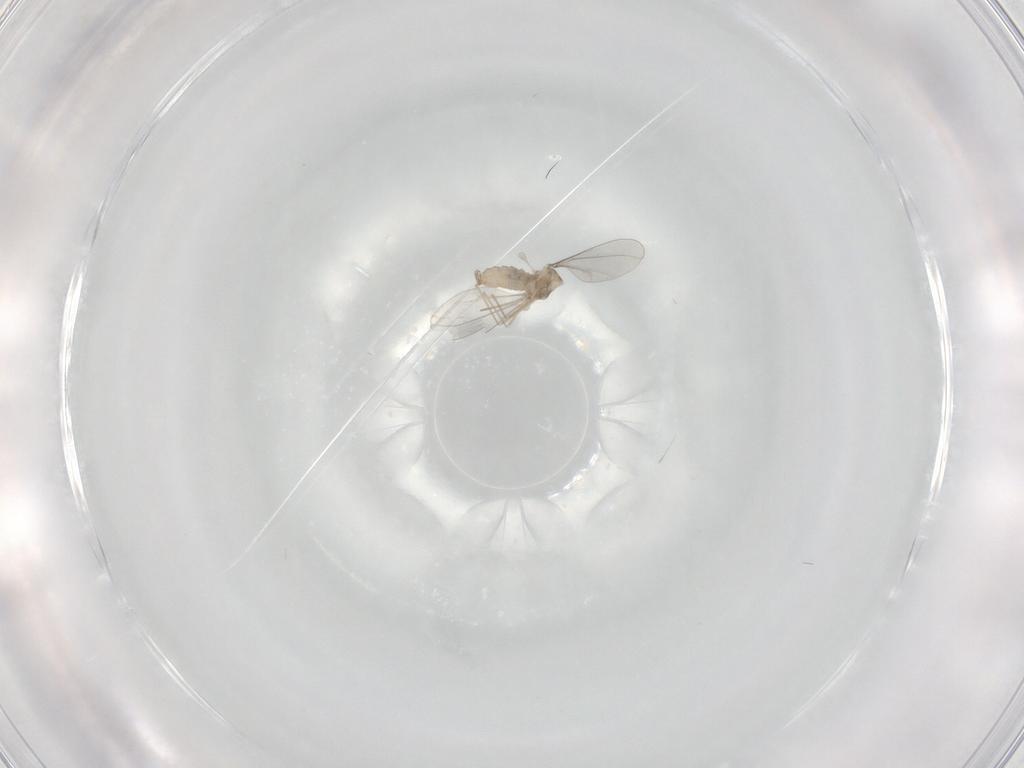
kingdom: Animalia
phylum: Arthropoda
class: Insecta
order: Diptera
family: Cecidomyiidae
